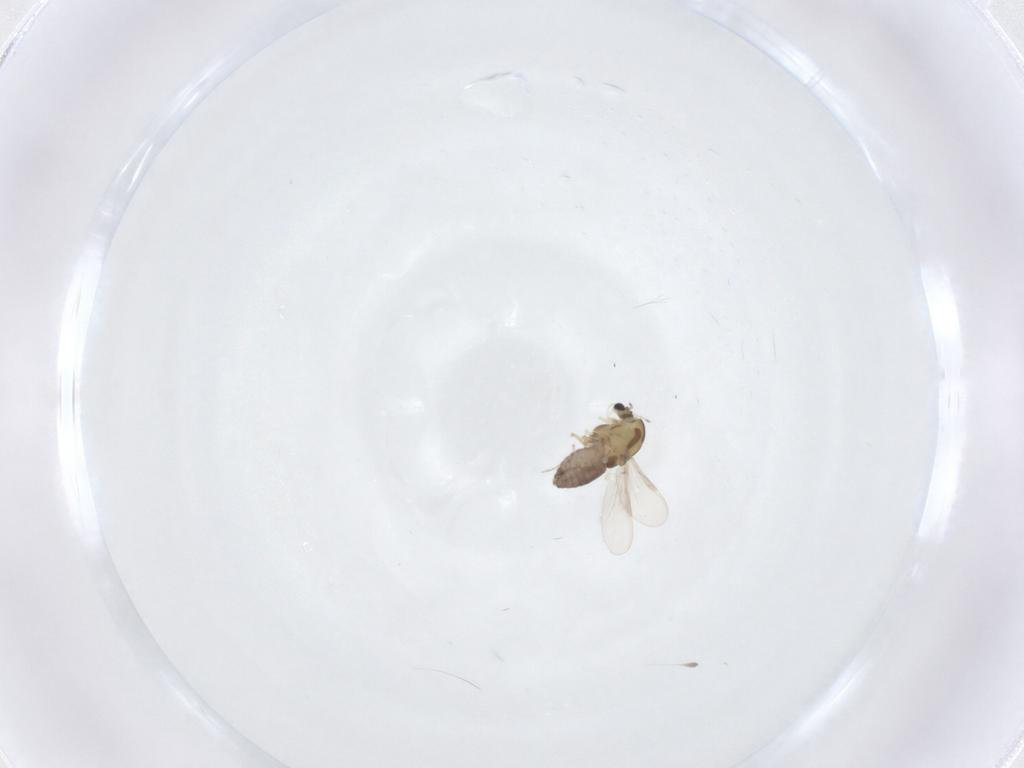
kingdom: Animalia
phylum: Arthropoda
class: Insecta
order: Diptera
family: Chironomidae
